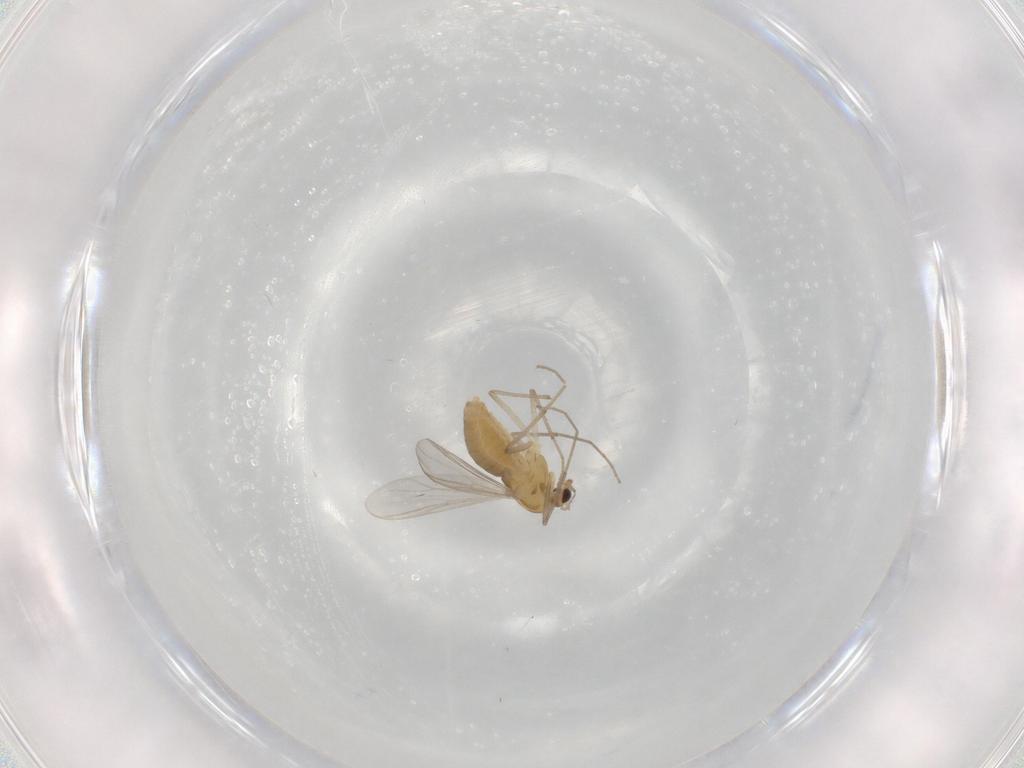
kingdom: Animalia
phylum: Arthropoda
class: Insecta
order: Diptera
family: Chironomidae
